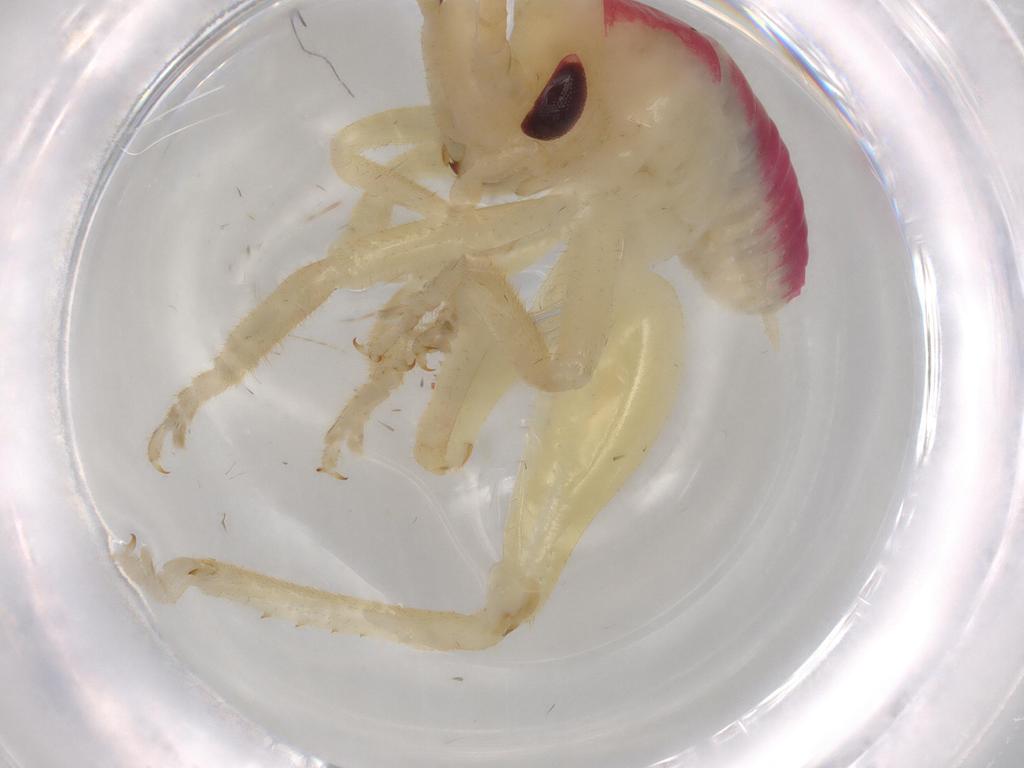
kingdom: Animalia
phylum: Arthropoda
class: Insecta
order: Orthoptera
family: Gryllacrididae
